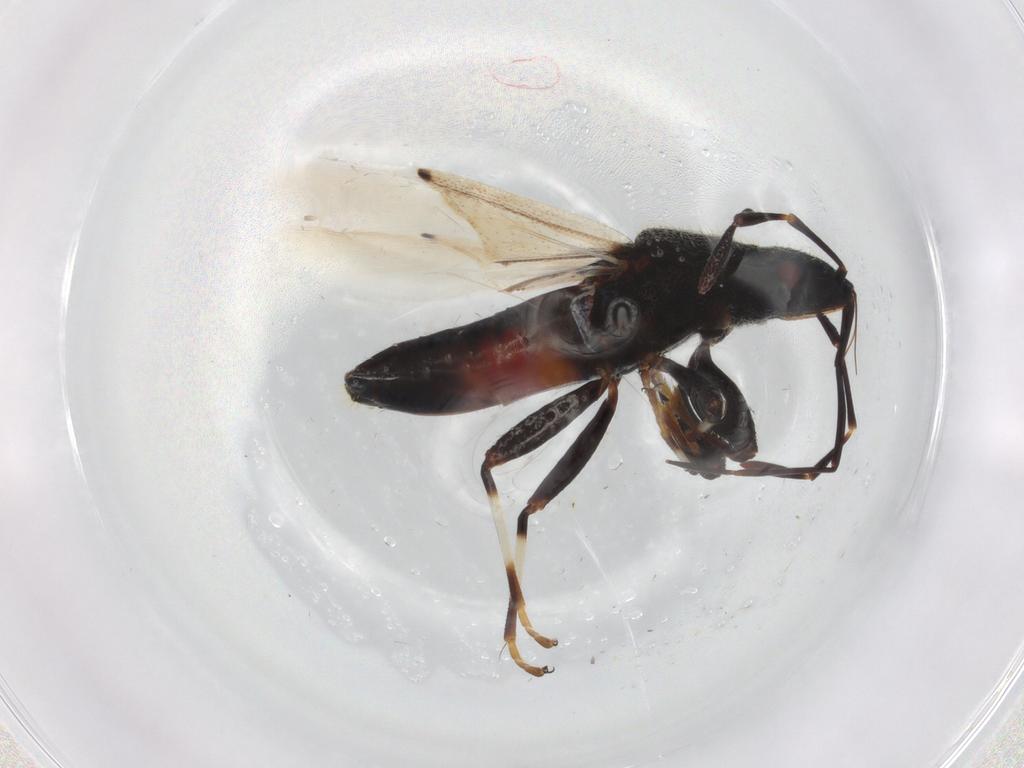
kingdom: Animalia
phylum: Arthropoda
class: Insecta
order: Hemiptera
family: Oxycarenidae
